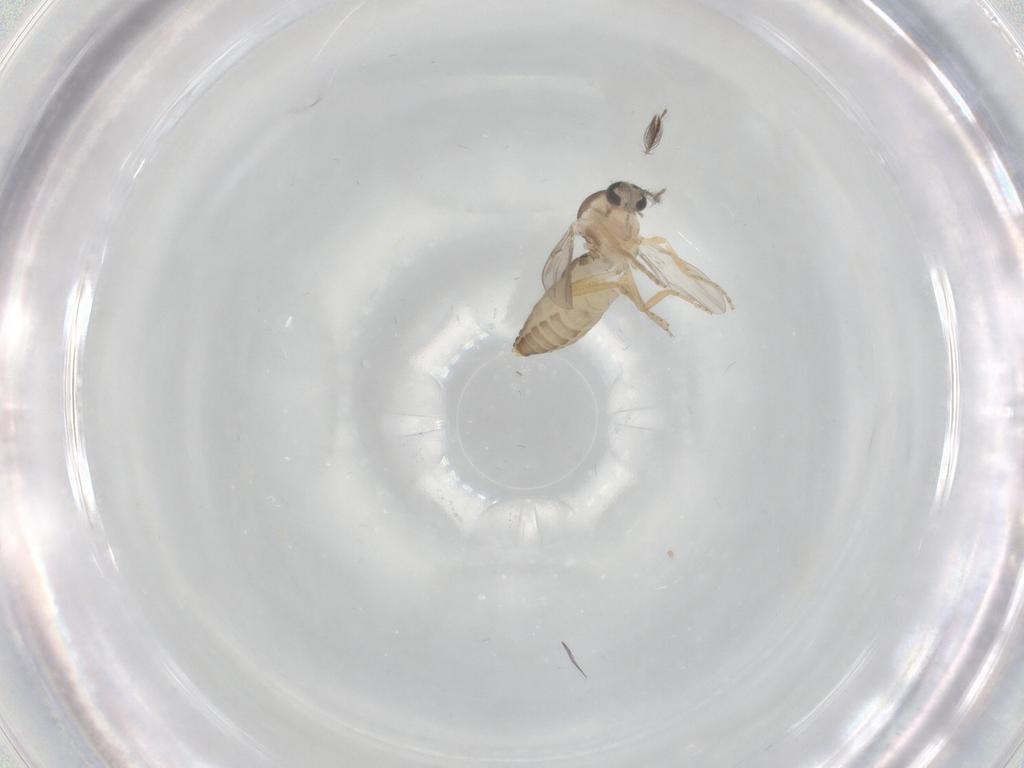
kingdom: Animalia
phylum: Arthropoda
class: Insecta
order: Diptera
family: Ceratopogonidae
